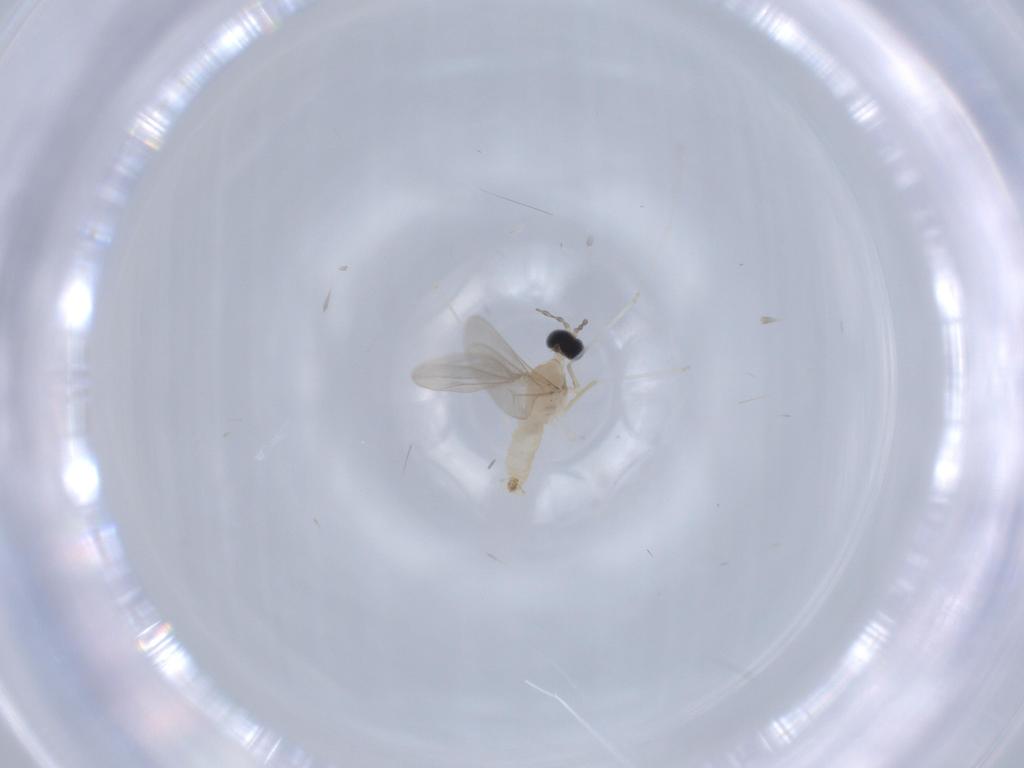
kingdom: Animalia
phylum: Arthropoda
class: Insecta
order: Diptera
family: Cecidomyiidae
